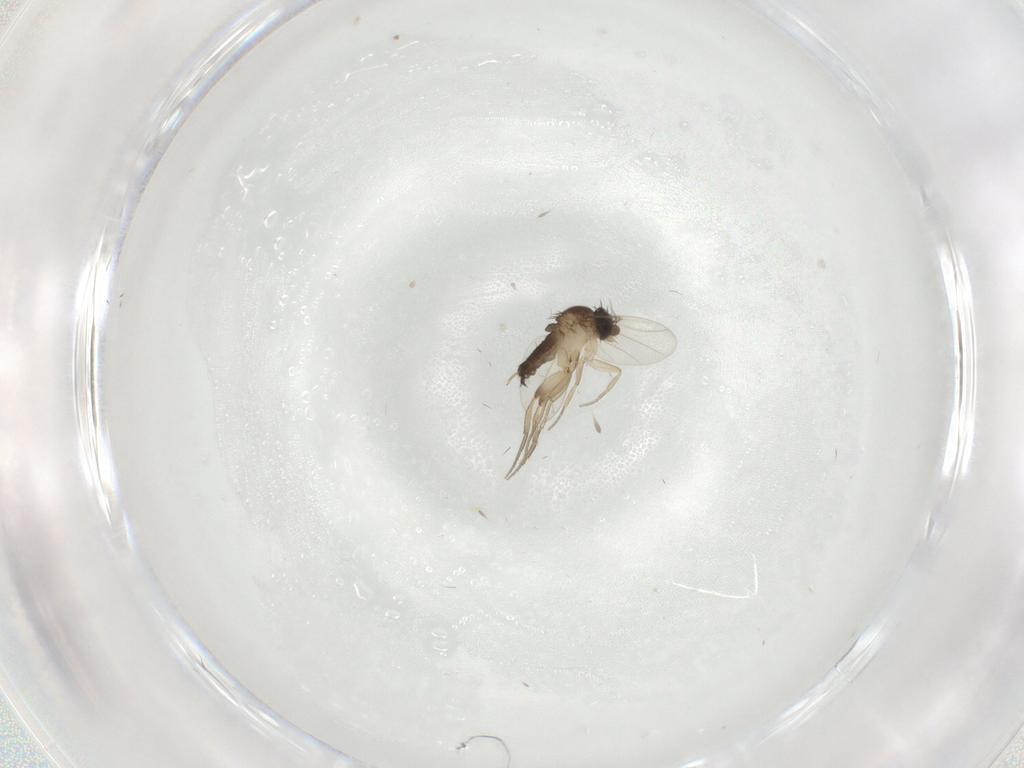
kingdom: Animalia
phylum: Arthropoda
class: Insecta
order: Diptera
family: Phoridae
